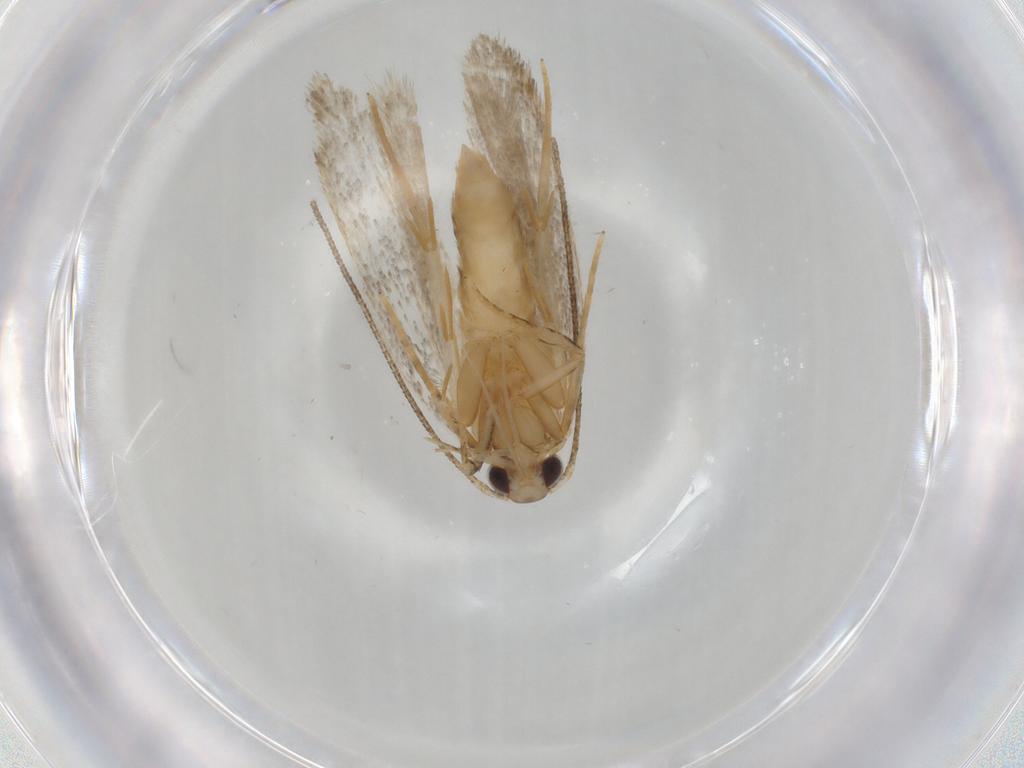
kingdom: Animalia
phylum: Arthropoda
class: Insecta
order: Lepidoptera
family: Autostichidae
